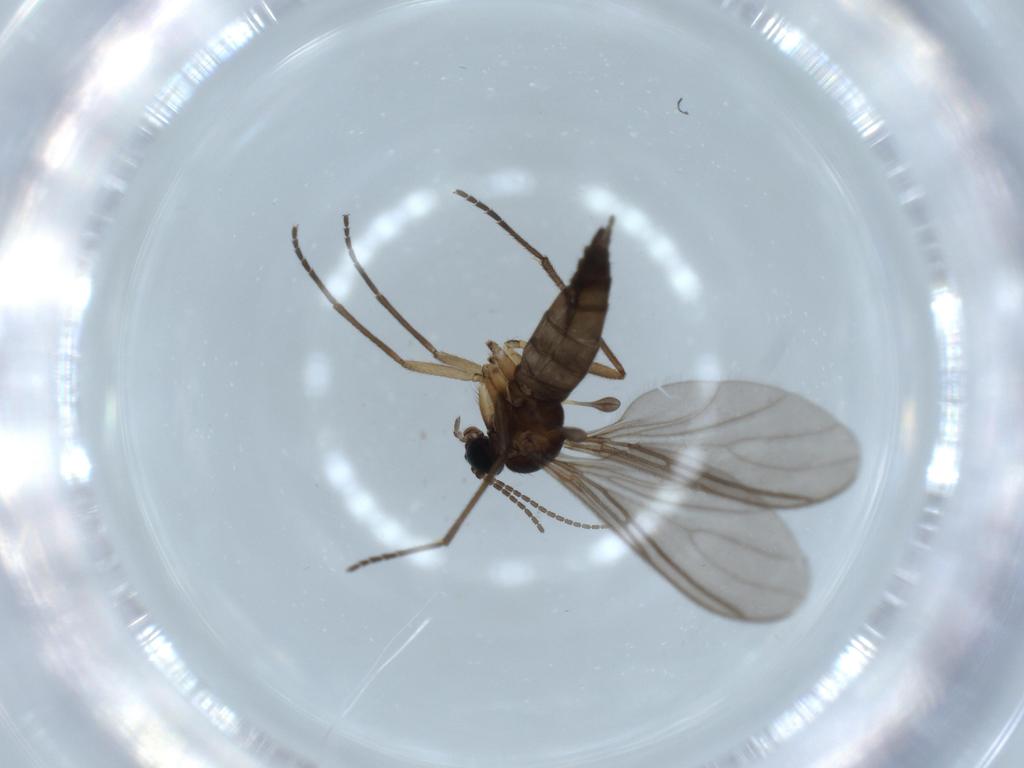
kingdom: Animalia
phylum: Arthropoda
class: Insecta
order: Diptera
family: Sciaridae
